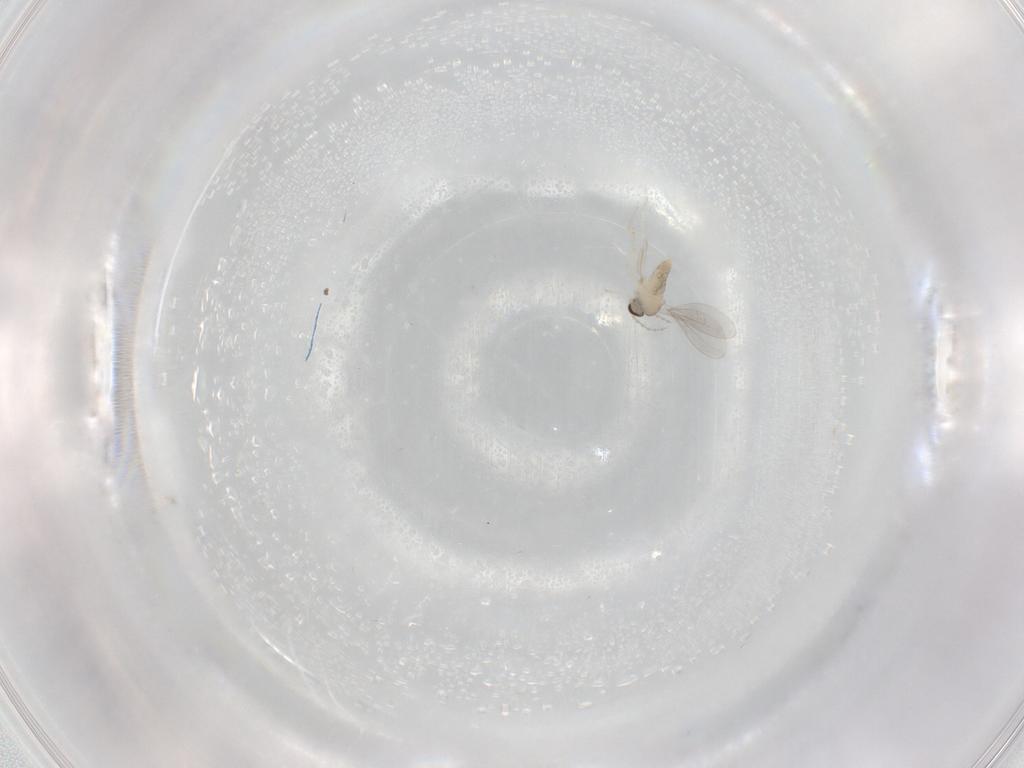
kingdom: Animalia
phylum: Arthropoda
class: Insecta
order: Diptera
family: Cecidomyiidae
